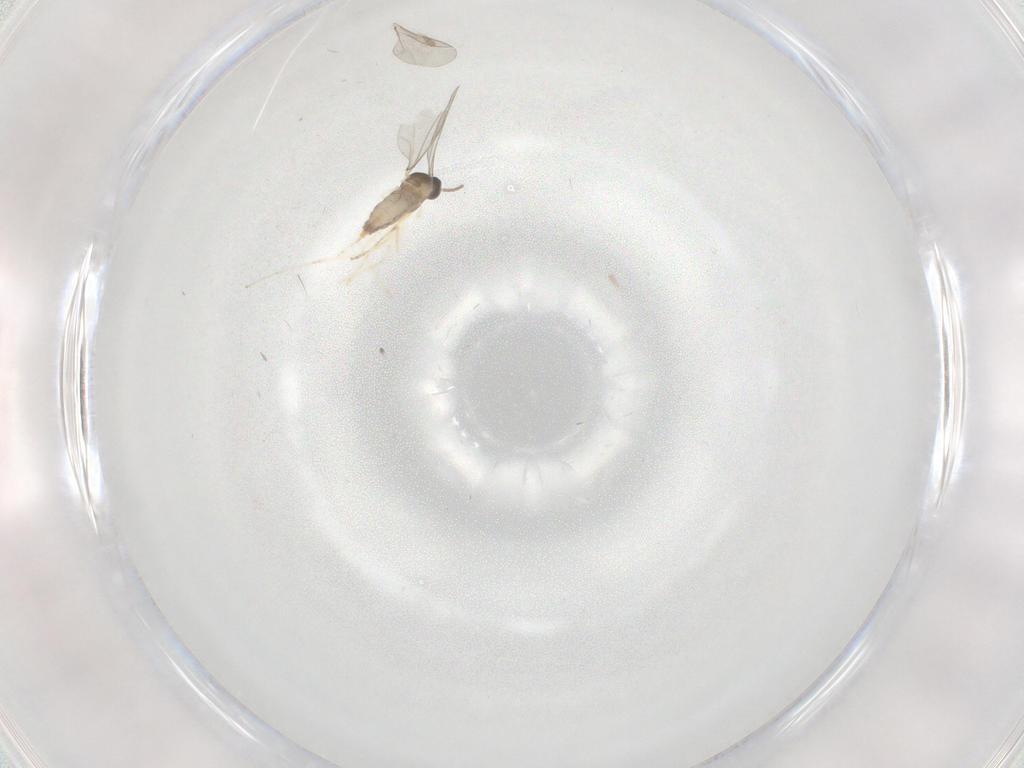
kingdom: Animalia
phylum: Arthropoda
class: Insecta
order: Diptera
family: Cecidomyiidae
